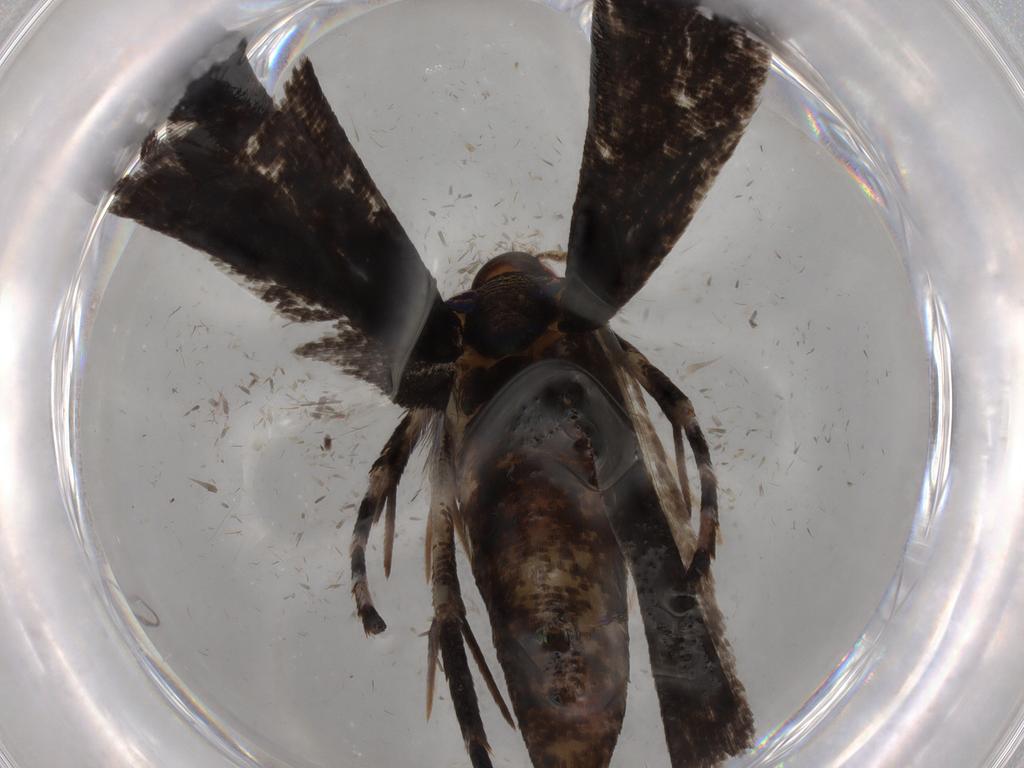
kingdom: Animalia
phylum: Arthropoda
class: Insecta
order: Lepidoptera
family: Gelechiidae
